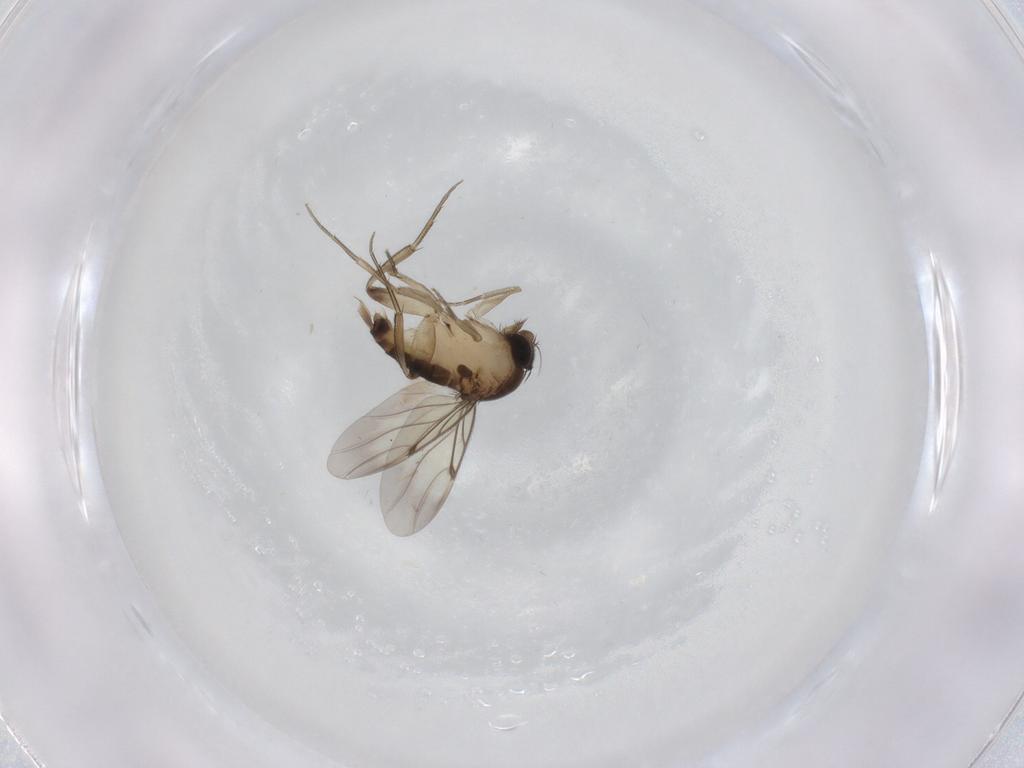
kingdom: Animalia
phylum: Arthropoda
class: Insecta
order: Diptera
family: Phoridae
